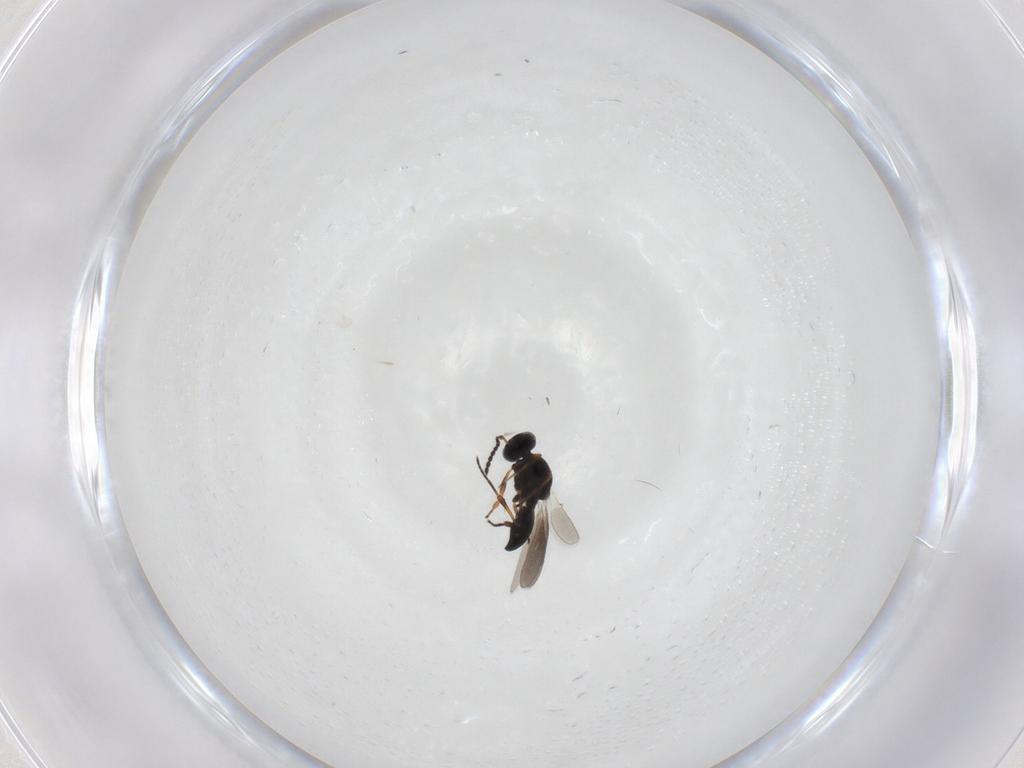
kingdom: Animalia
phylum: Arthropoda
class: Insecta
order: Hymenoptera
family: Platygastridae
